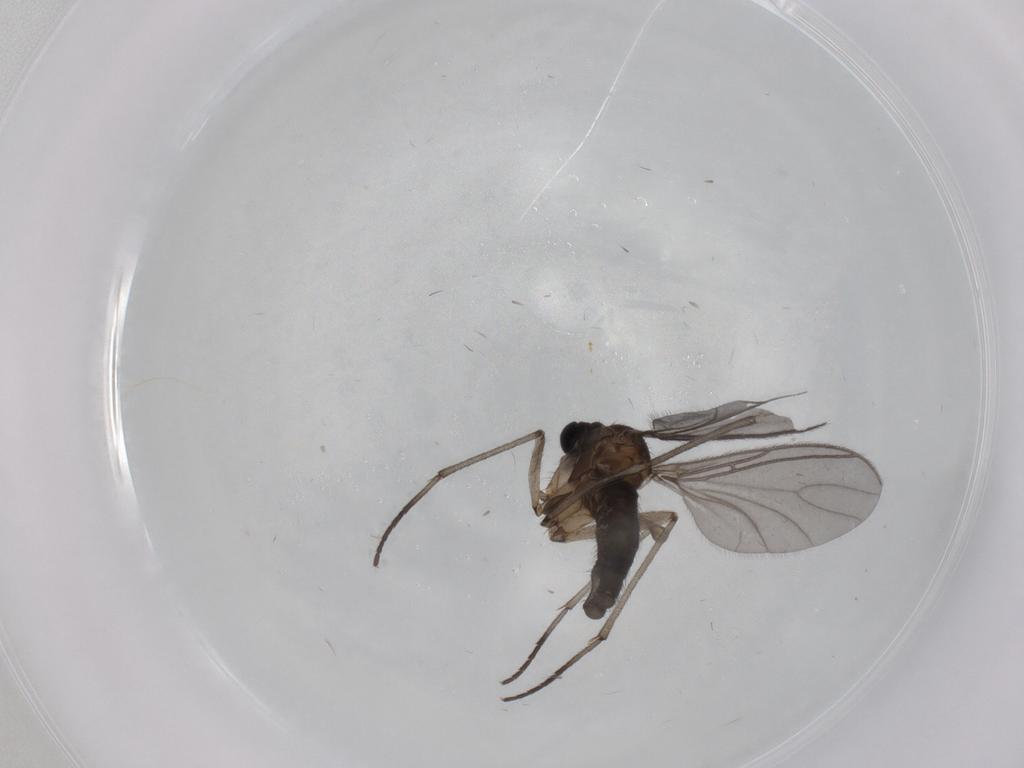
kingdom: Animalia
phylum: Arthropoda
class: Insecta
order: Diptera
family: Sciaridae
